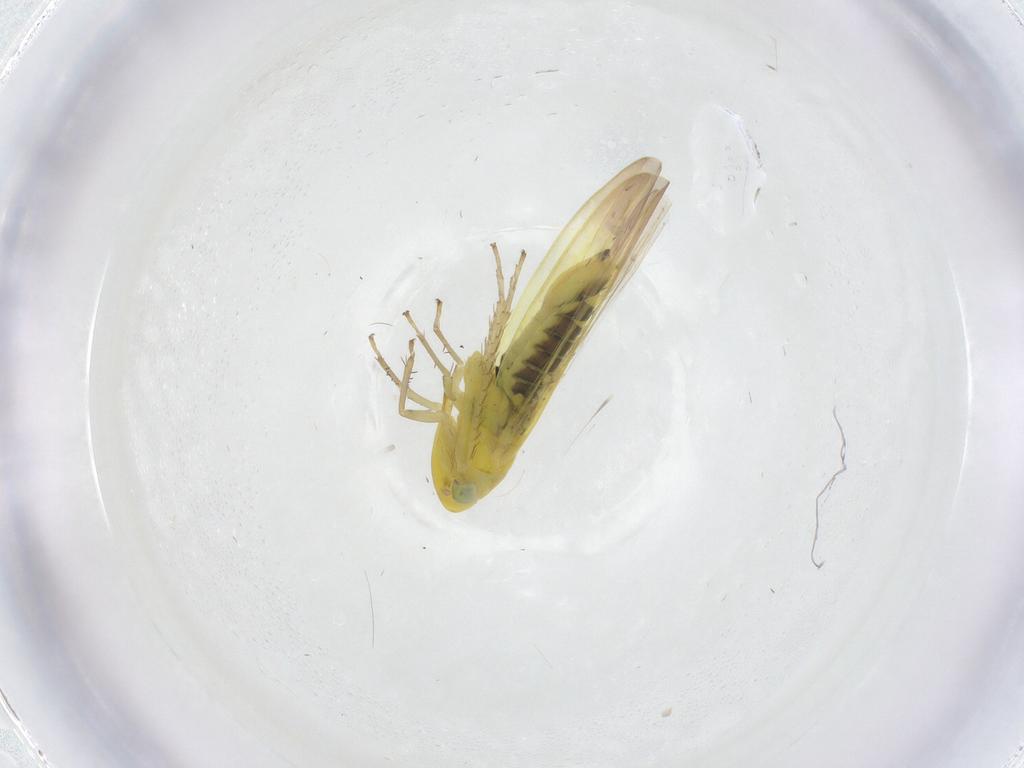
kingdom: Animalia
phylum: Arthropoda
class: Insecta
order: Hemiptera
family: Cicadellidae
